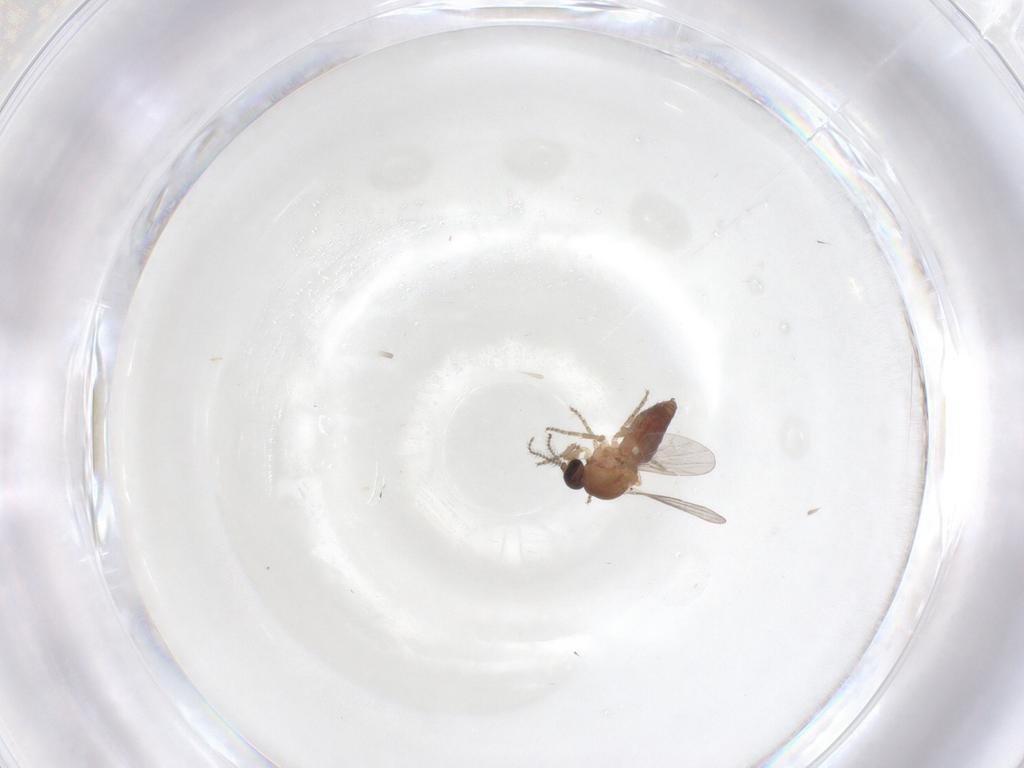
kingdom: Animalia
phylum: Arthropoda
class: Insecta
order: Diptera
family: Ceratopogonidae
